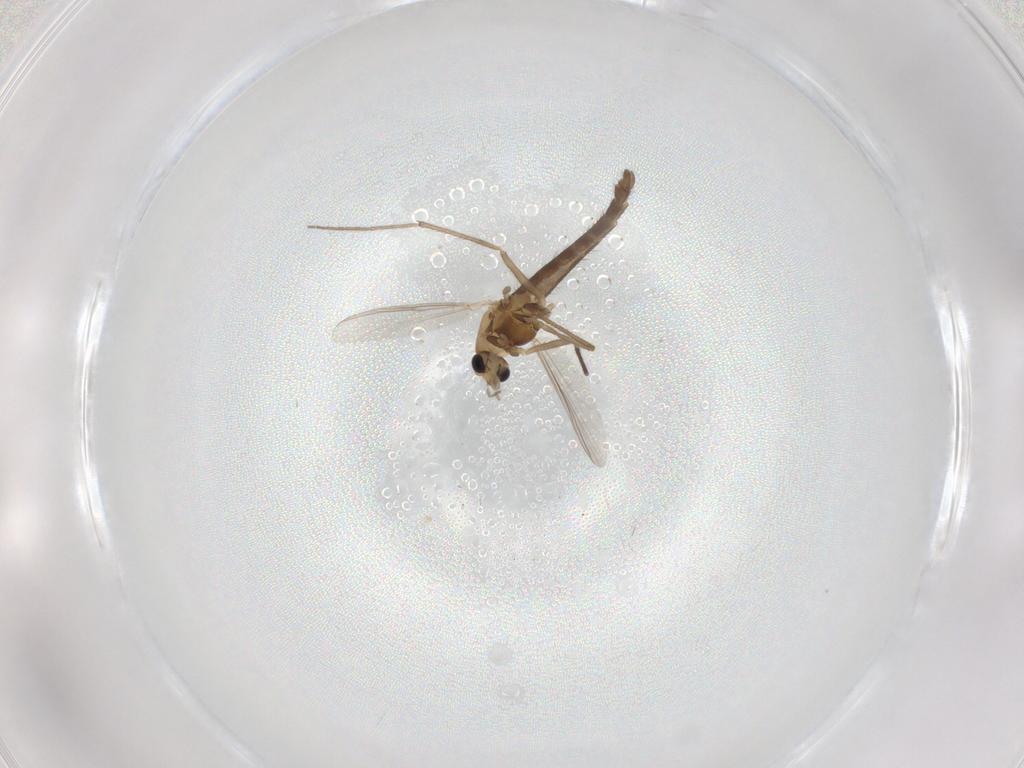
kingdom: Animalia
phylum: Arthropoda
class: Insecta
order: Diptera
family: Chironomidae
